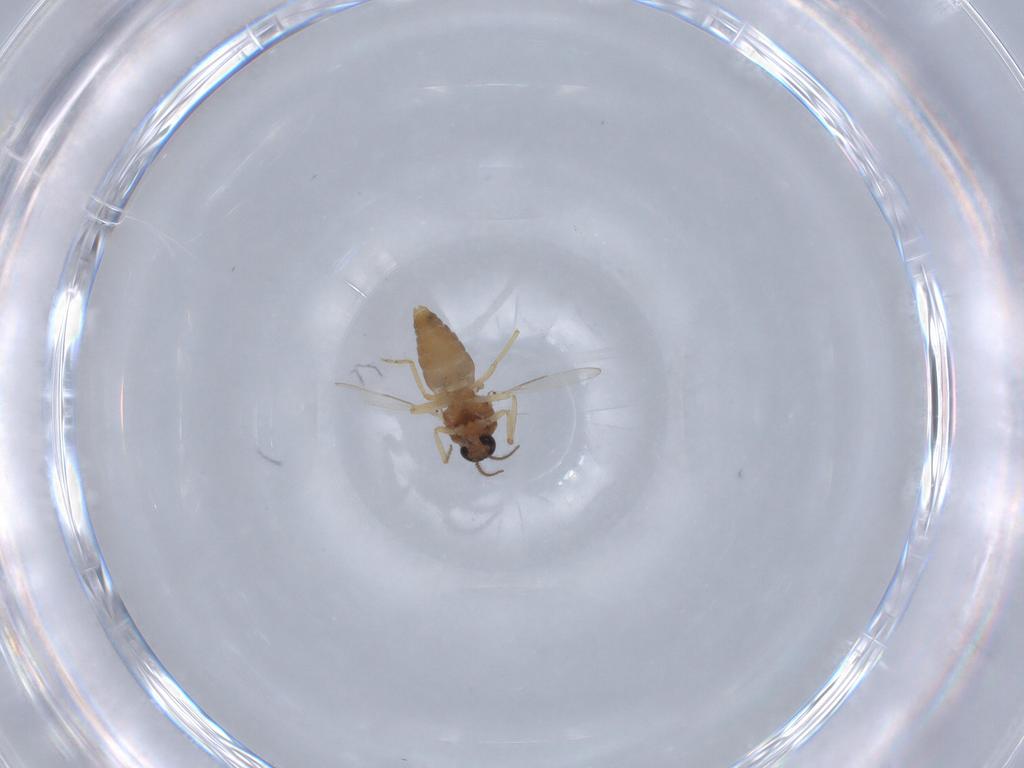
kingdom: Animalia
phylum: Arthropoda
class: Insecta
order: Diptera
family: Ceratopogonidae
